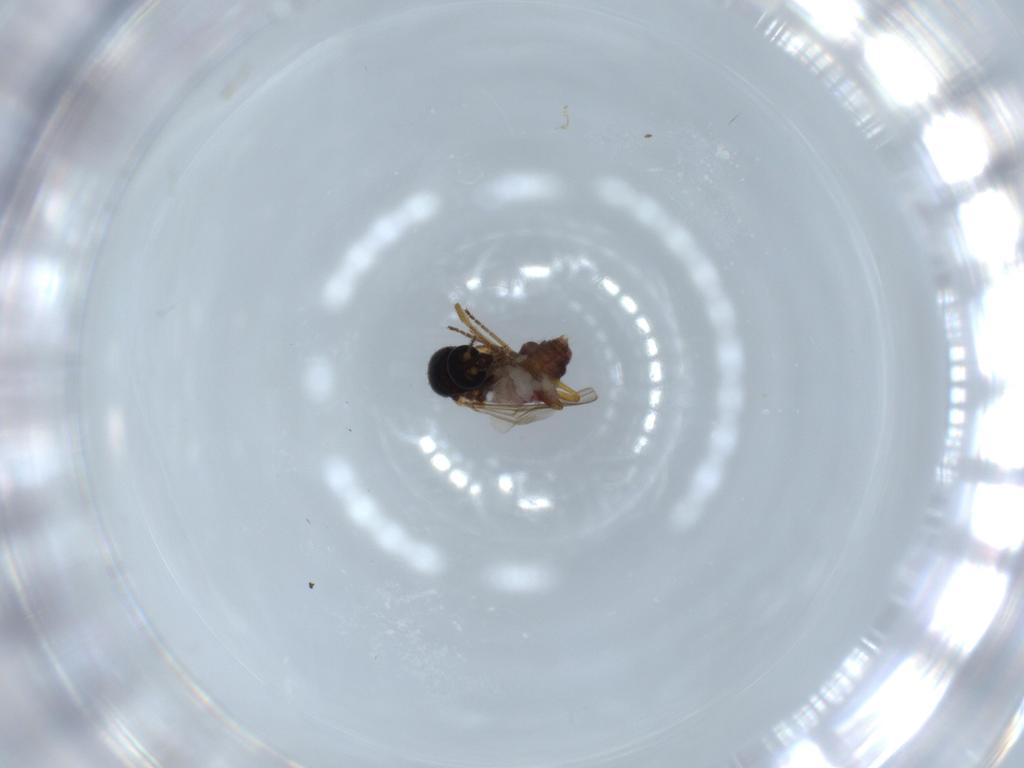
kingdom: Animalia
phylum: Arthropoda
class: Insecta
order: Diptera
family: Ceratopogonidae
